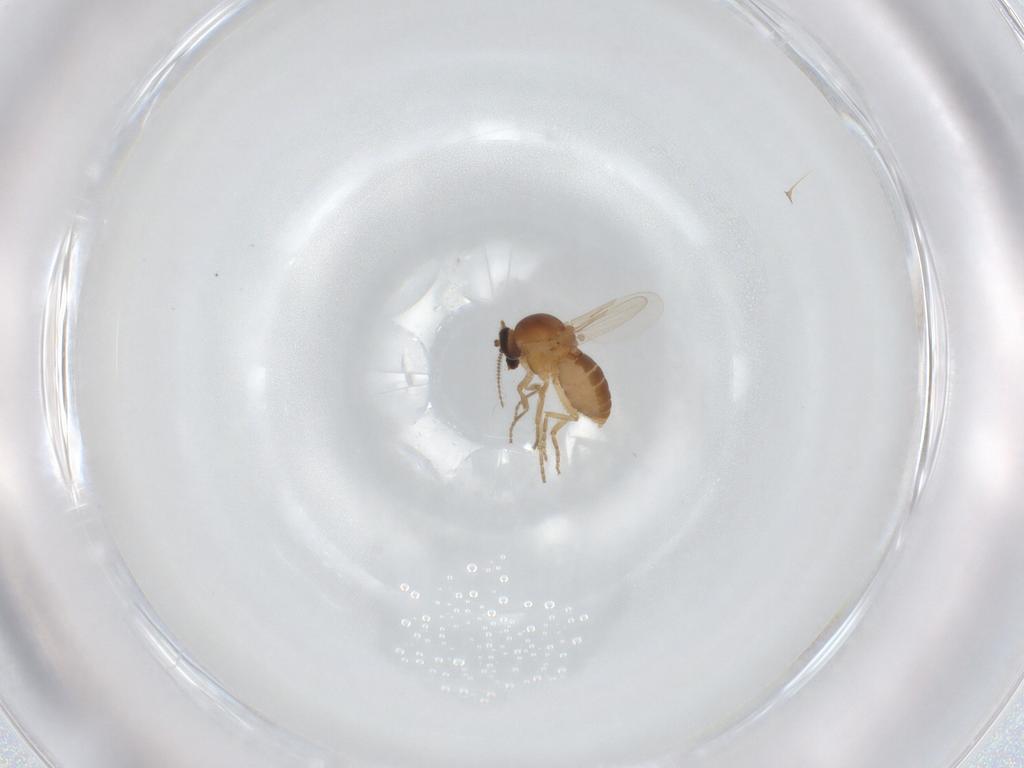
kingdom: Animalia
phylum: Arthropoda
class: Insecta
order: Diptera
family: Ceratopogonidae
